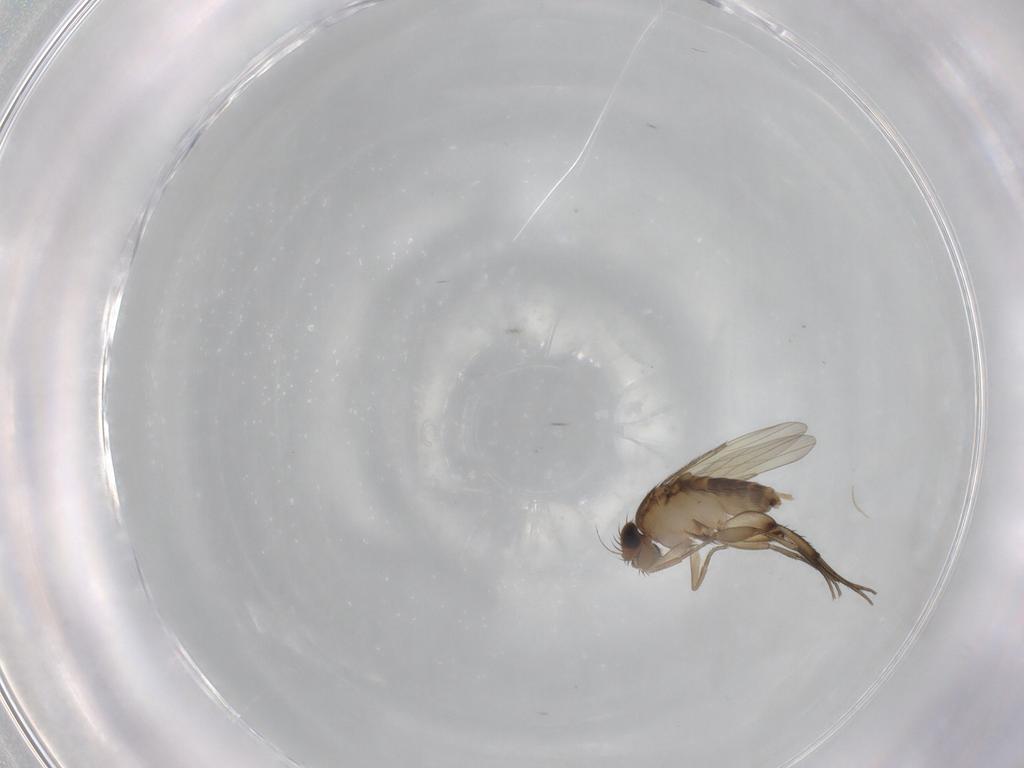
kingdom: Animalia
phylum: Arthropoda
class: Insecta
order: Diptera
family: Phoridae
